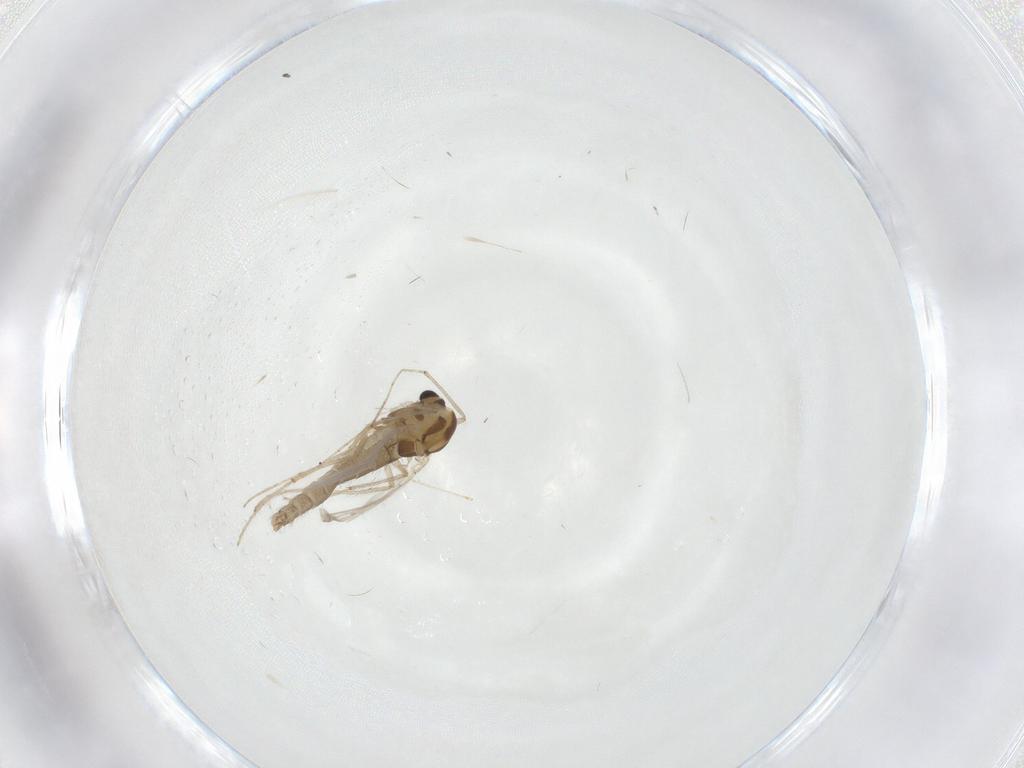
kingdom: Animalia
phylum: Arthropoda
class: Insecta
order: Diptera
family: Chironomidae
